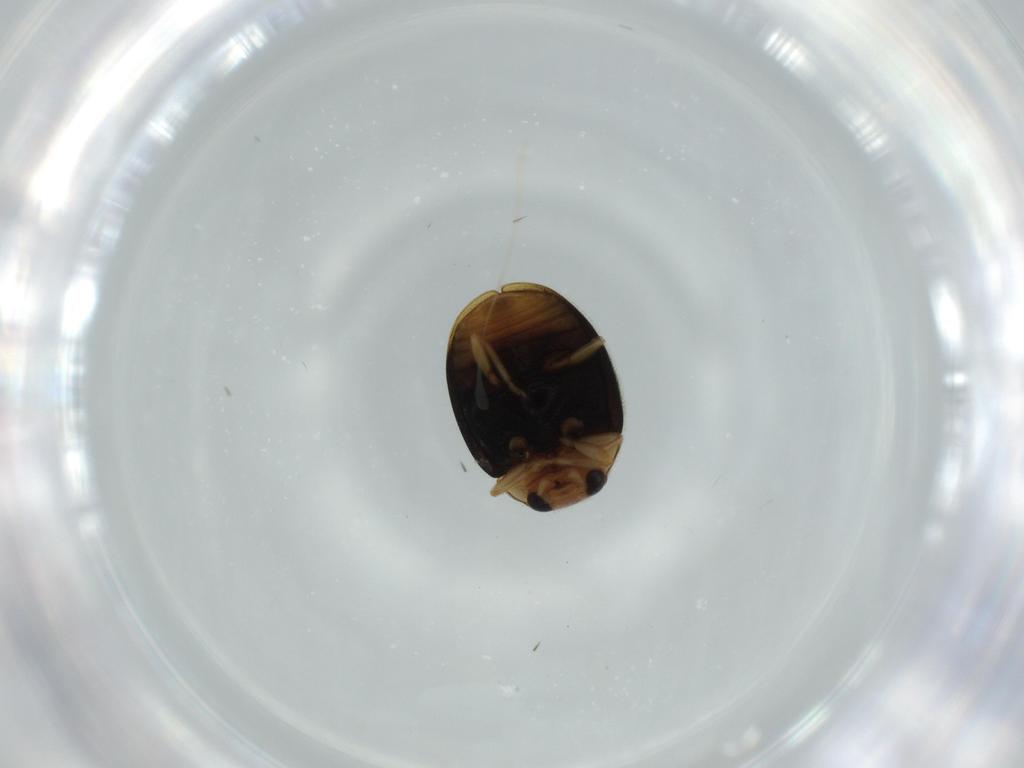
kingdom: Animalia
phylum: Arthropoda
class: Insecta
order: Coleoptera
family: Coccinellidae
